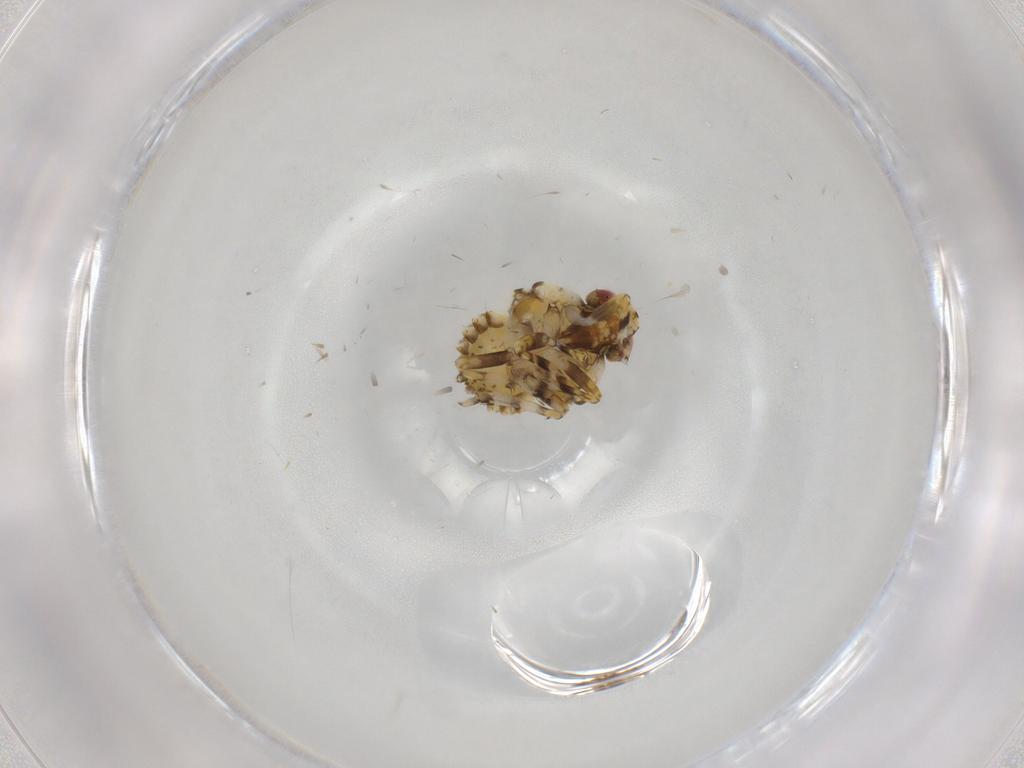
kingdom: Animalia
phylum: Arthropoda
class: Insecta
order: Hemiptera
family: Fulgoroidea_incertae_sedis
